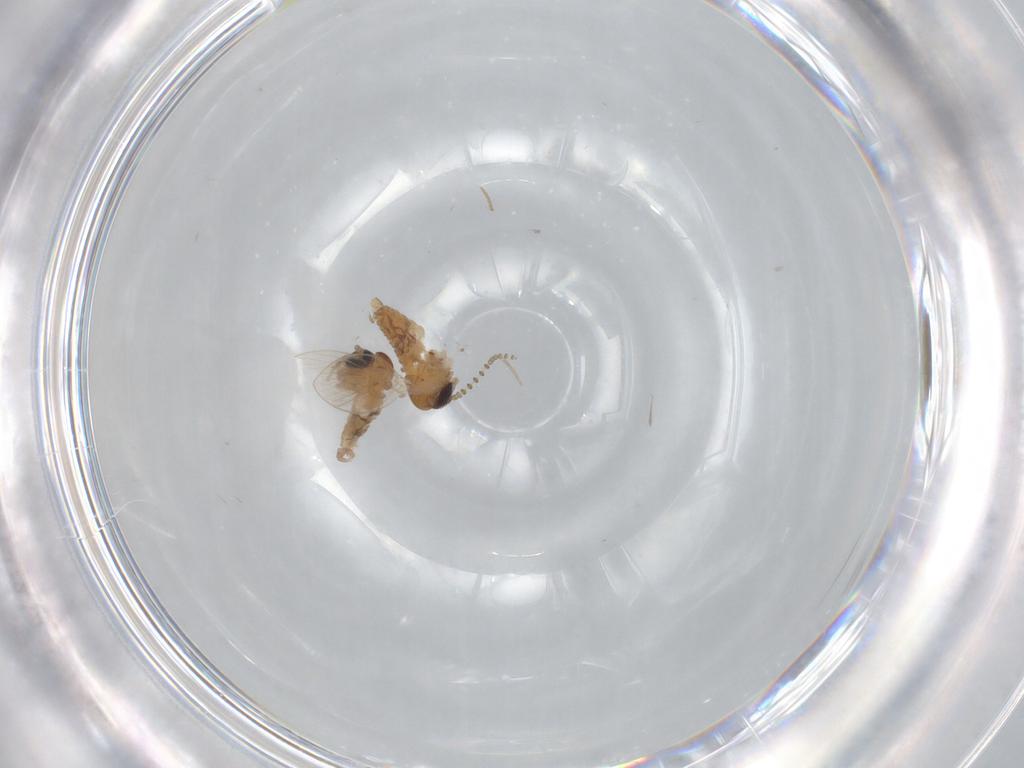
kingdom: Animalia
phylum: Arthropoda
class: Insecta
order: Diptera
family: Psychodidae
